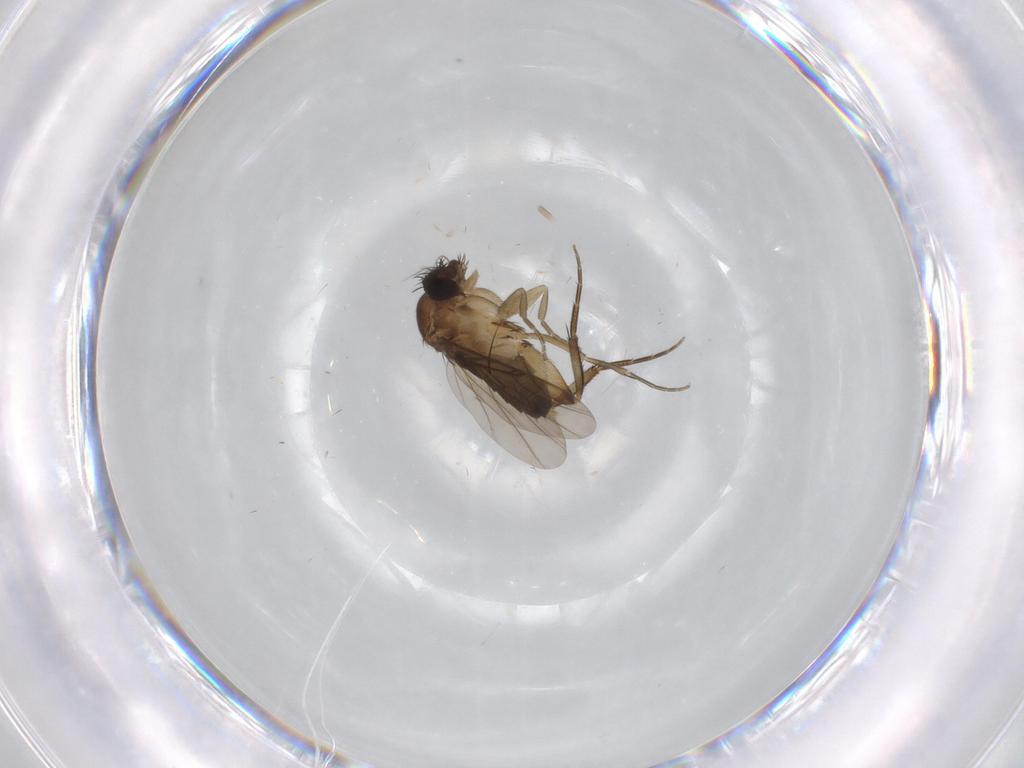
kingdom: Animalia
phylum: Arthropoda
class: Insecta
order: Diptera
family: Phoridae
